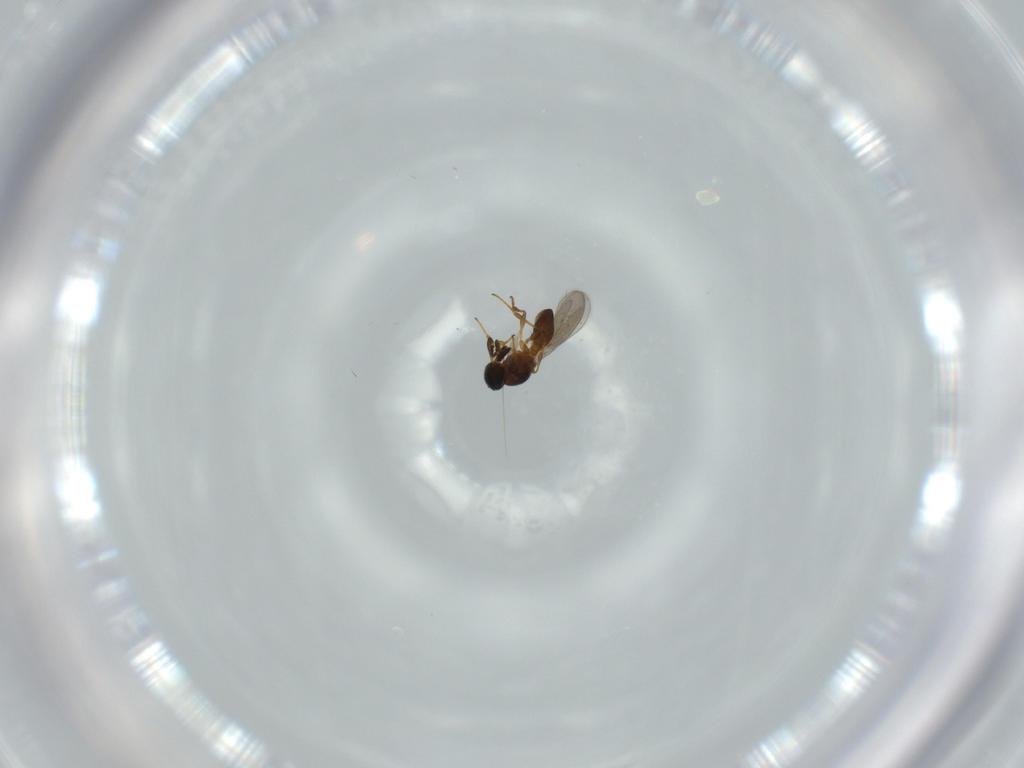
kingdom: Animalia
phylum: Arthropoda
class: Insecta
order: Hymenoptera
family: Platygastridae
